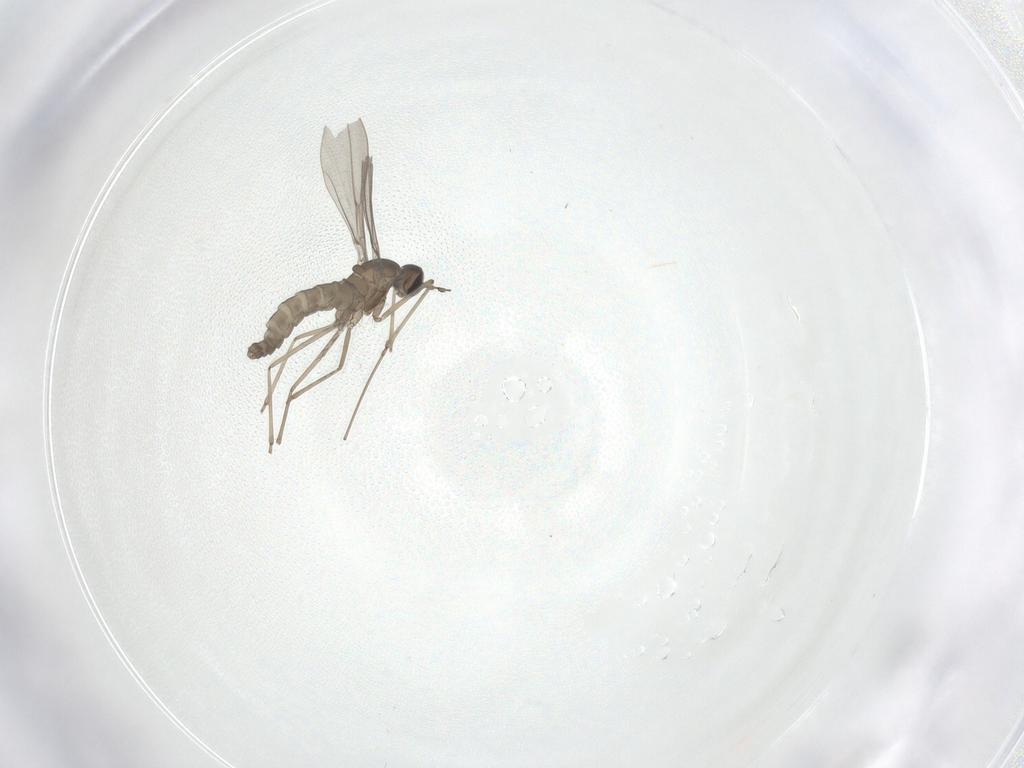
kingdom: Animalia
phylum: Arthropoda
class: Insecta
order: Diptera
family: Cecidomyiidae
